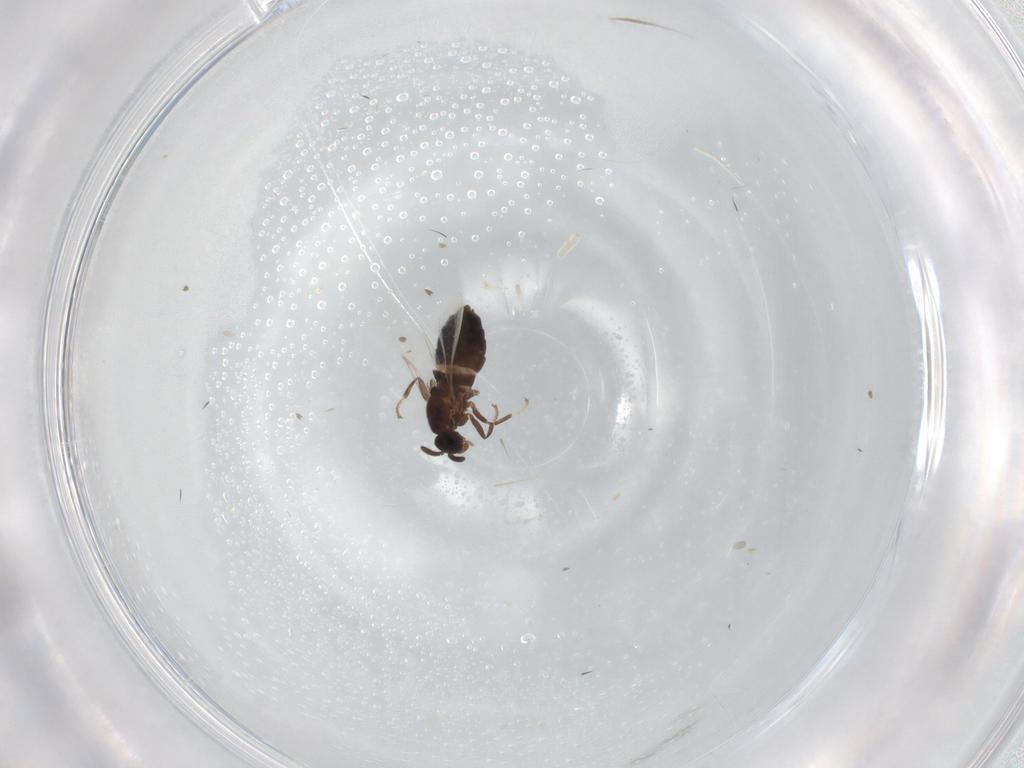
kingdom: Animalia
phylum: Arthropoda
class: Insecta
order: Diptera
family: Scatopsidae
